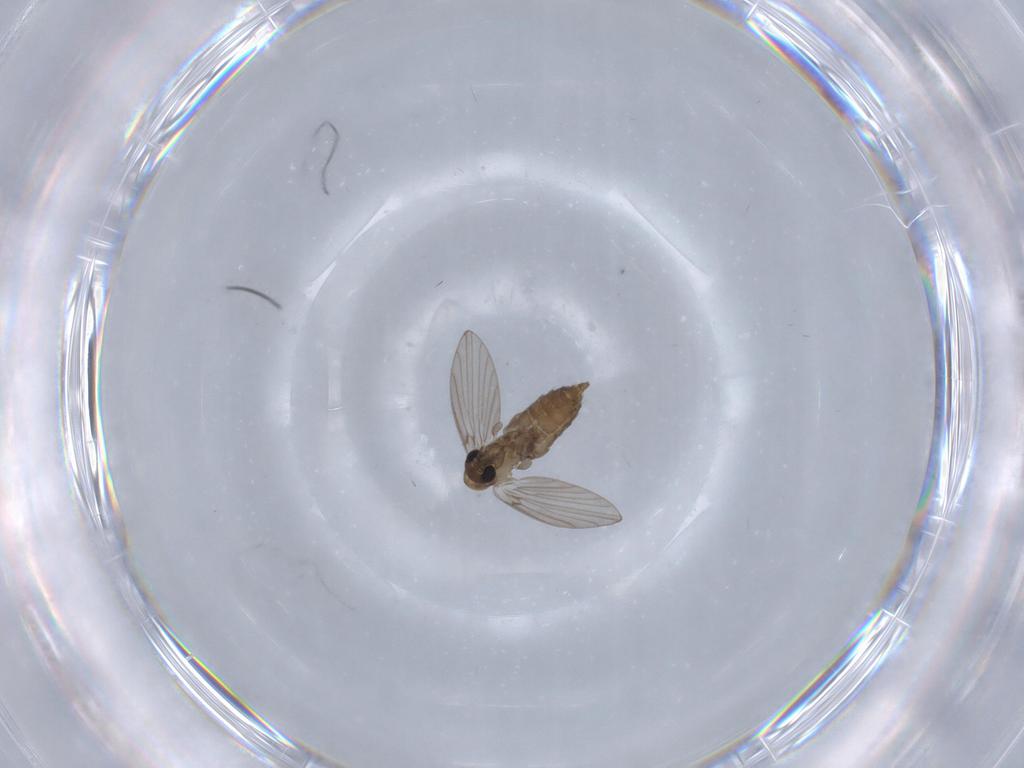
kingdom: Animalia
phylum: Arthropoda
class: Insecta
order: Diptera
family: Psychodidae
